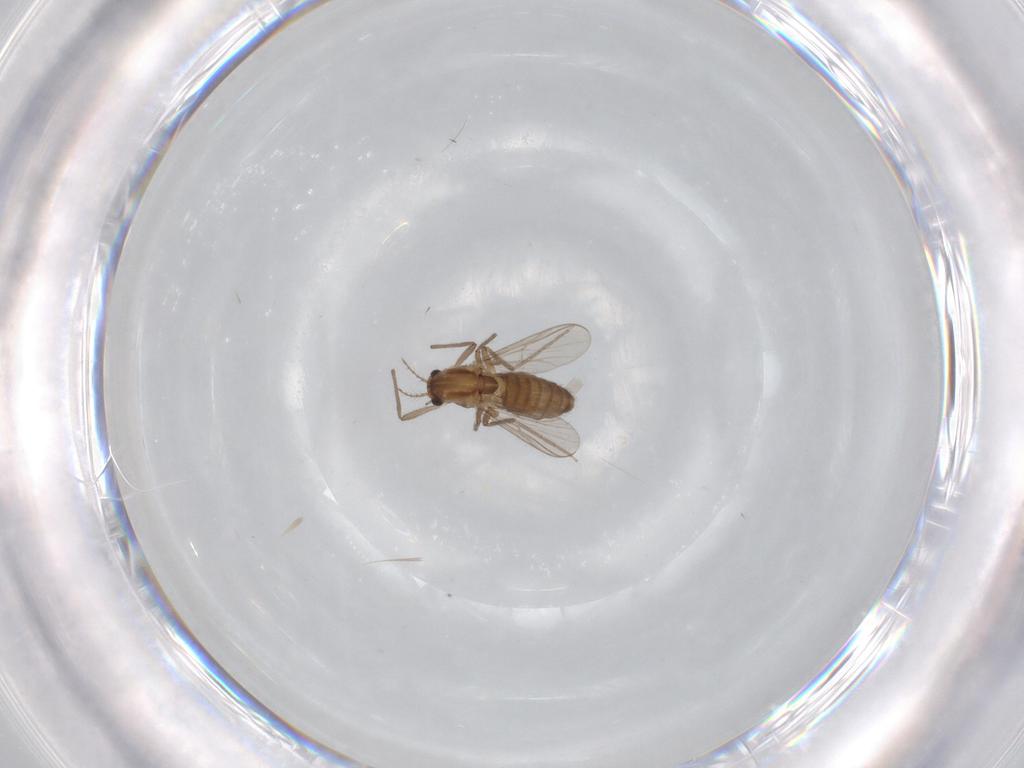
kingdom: Animalia
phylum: Arthropoda
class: Insecta
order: Diptera
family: Chironomidae
